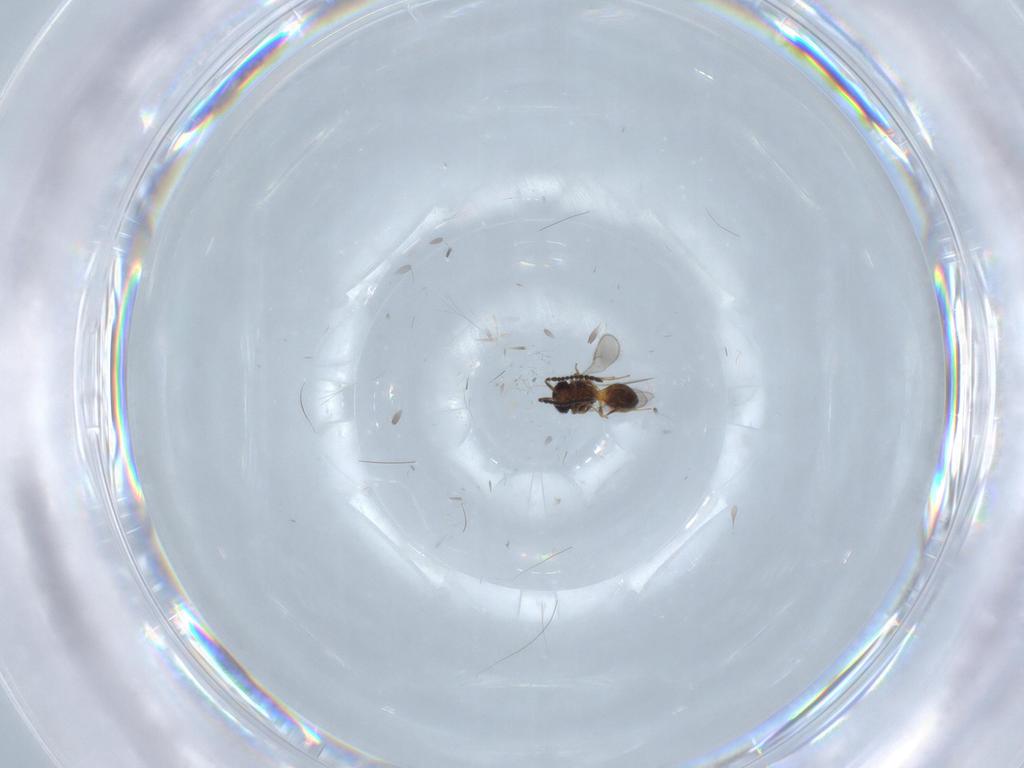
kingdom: Animalia
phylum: Arthropoda
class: Insecta
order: Hymenoptera
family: Scelionidae
